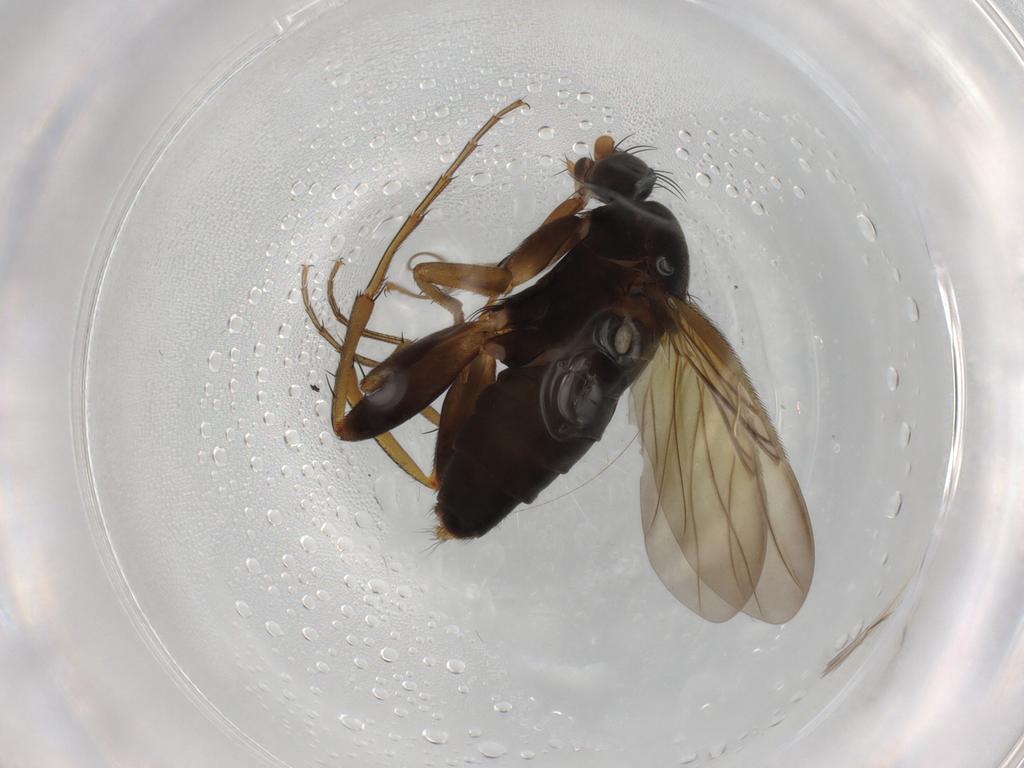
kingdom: Animalia
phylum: Arthropoda
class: Insecta
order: Diptera
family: Phoridae
